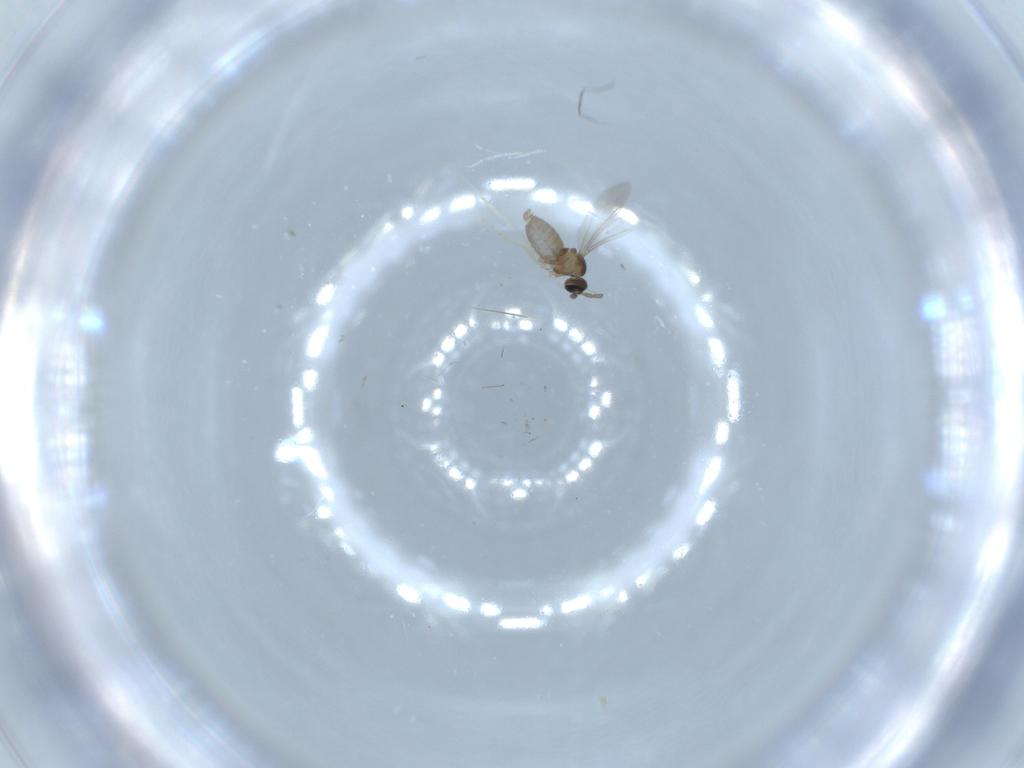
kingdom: Animalia
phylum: Arthropoda
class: Insecta
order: Diptera
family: Cecidomyiidae
